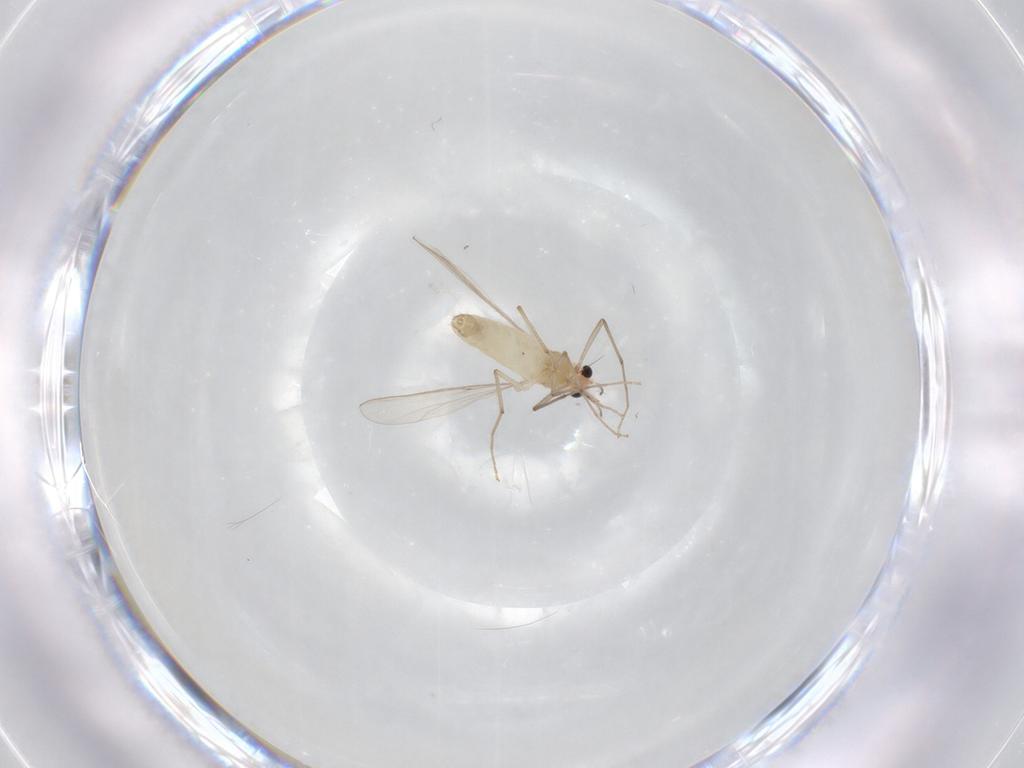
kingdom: Animalia
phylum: Arthropoda
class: Insecta
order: Diptera
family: Chironomidae
